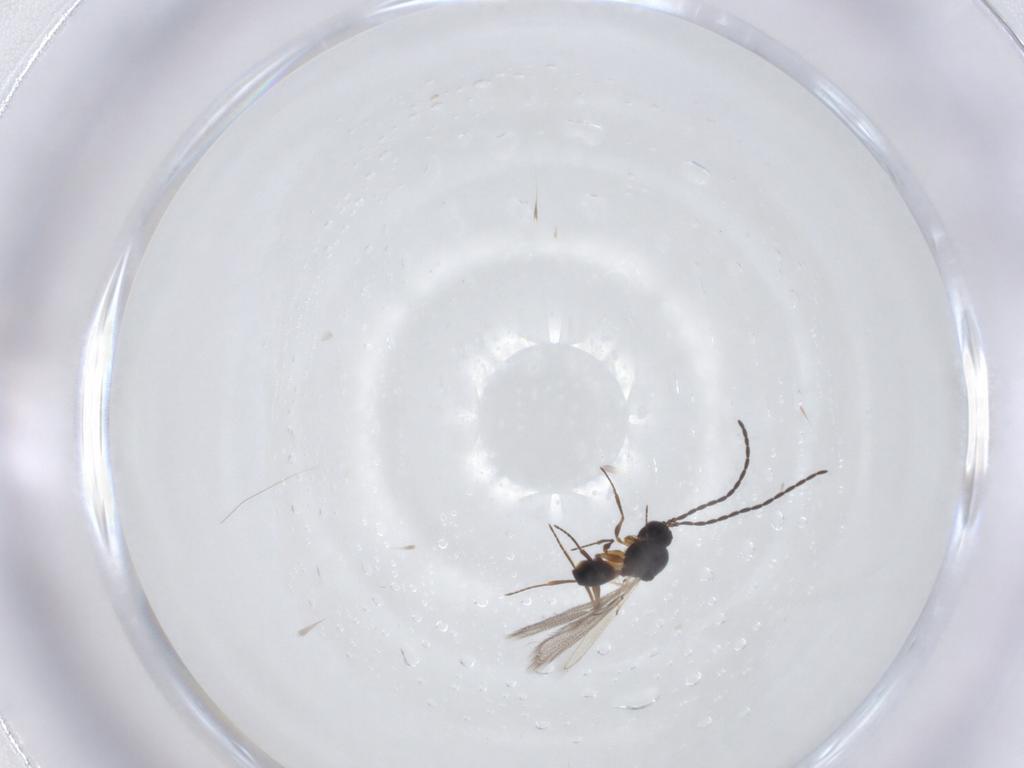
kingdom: Animalia
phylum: Arthropoda
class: Insecta
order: Hymenoptera
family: Figitidae
